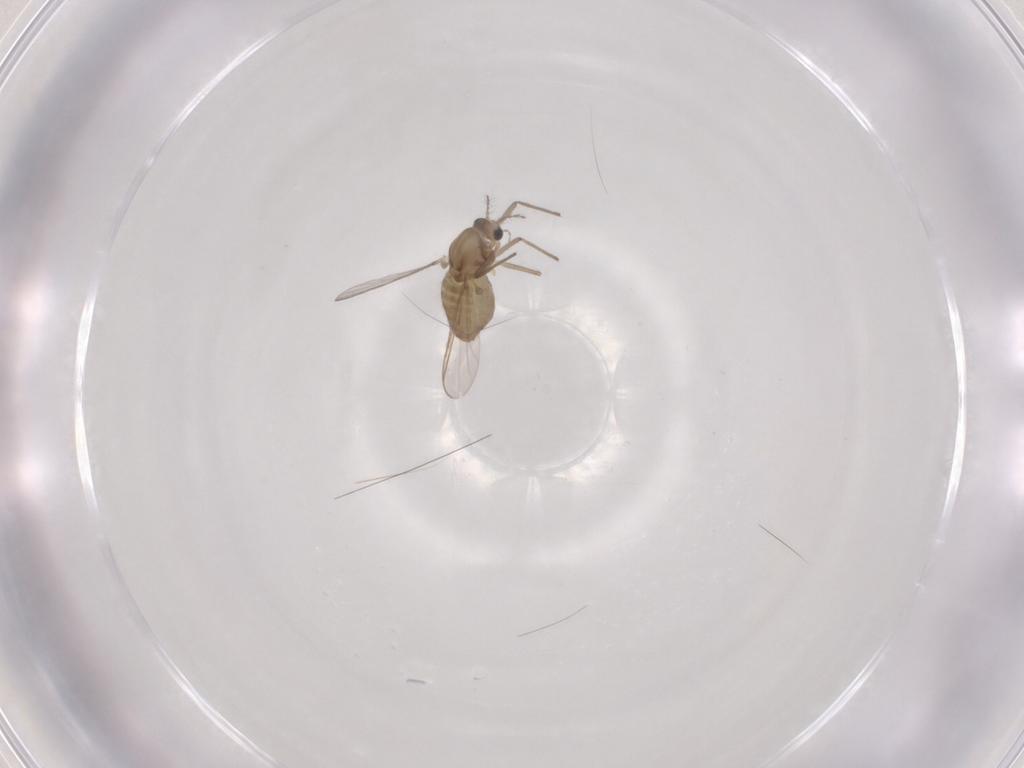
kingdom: Animalia
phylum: Arthropoda
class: Insecta
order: Diptera
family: Chironomidae
